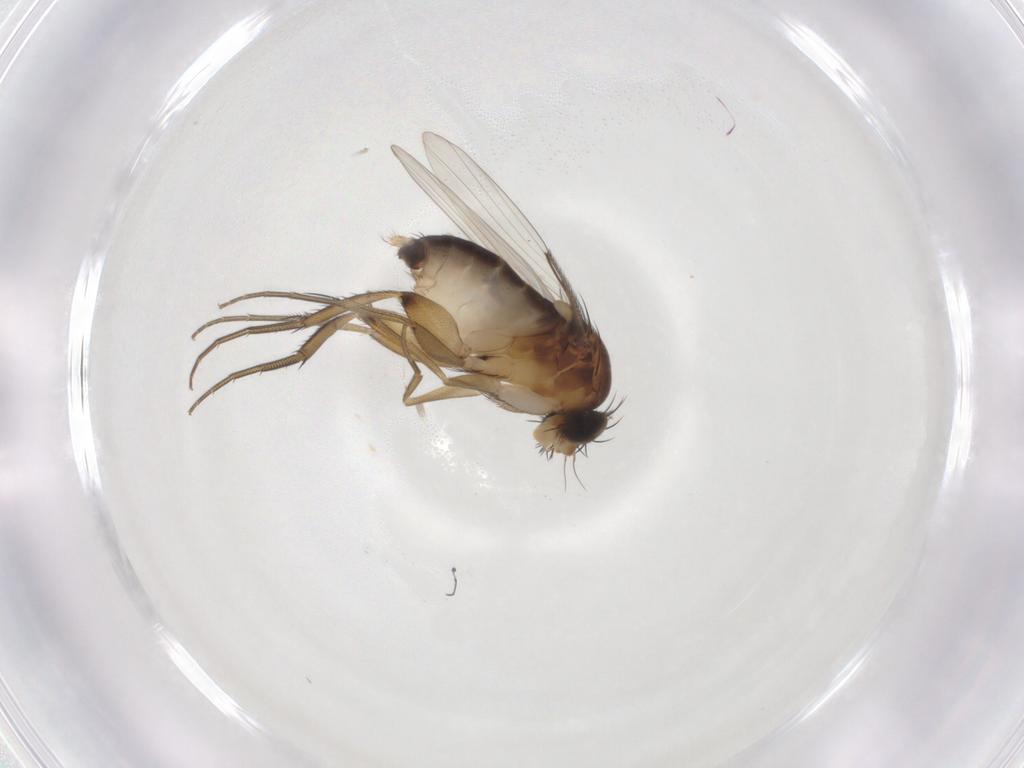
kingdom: Animalia
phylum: Arthropoda
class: Insecta
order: Diptera
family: Phoridae
